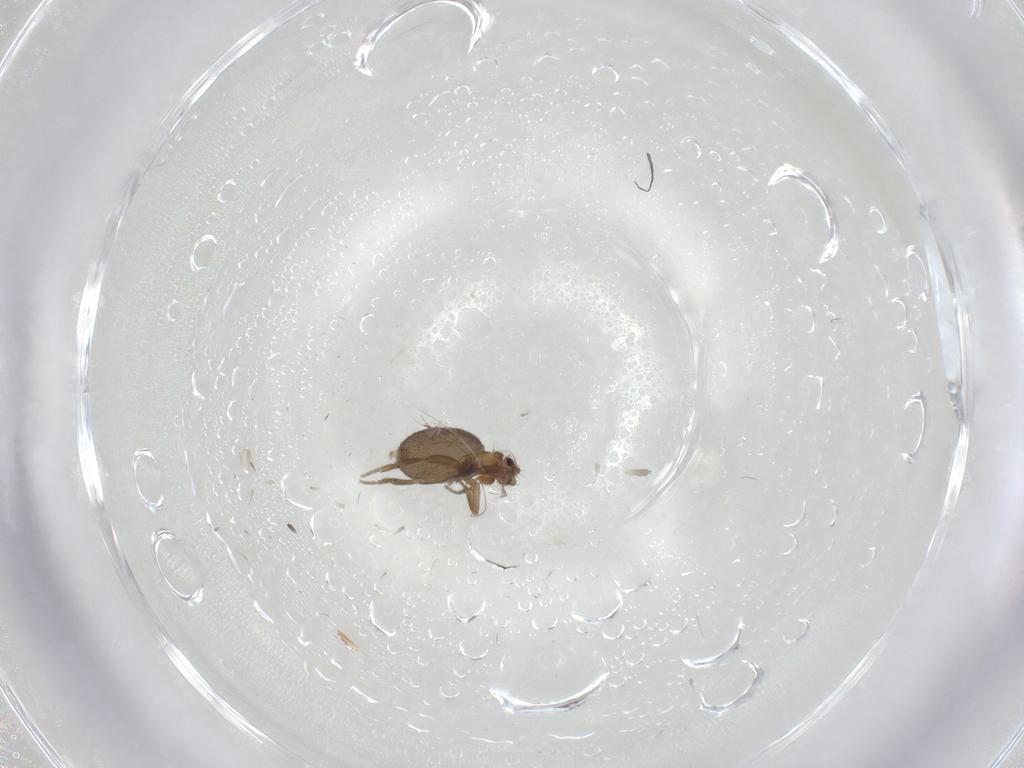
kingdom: Animalia
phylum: Arthropoda
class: Insecta
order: Diptera
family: Phoridae
